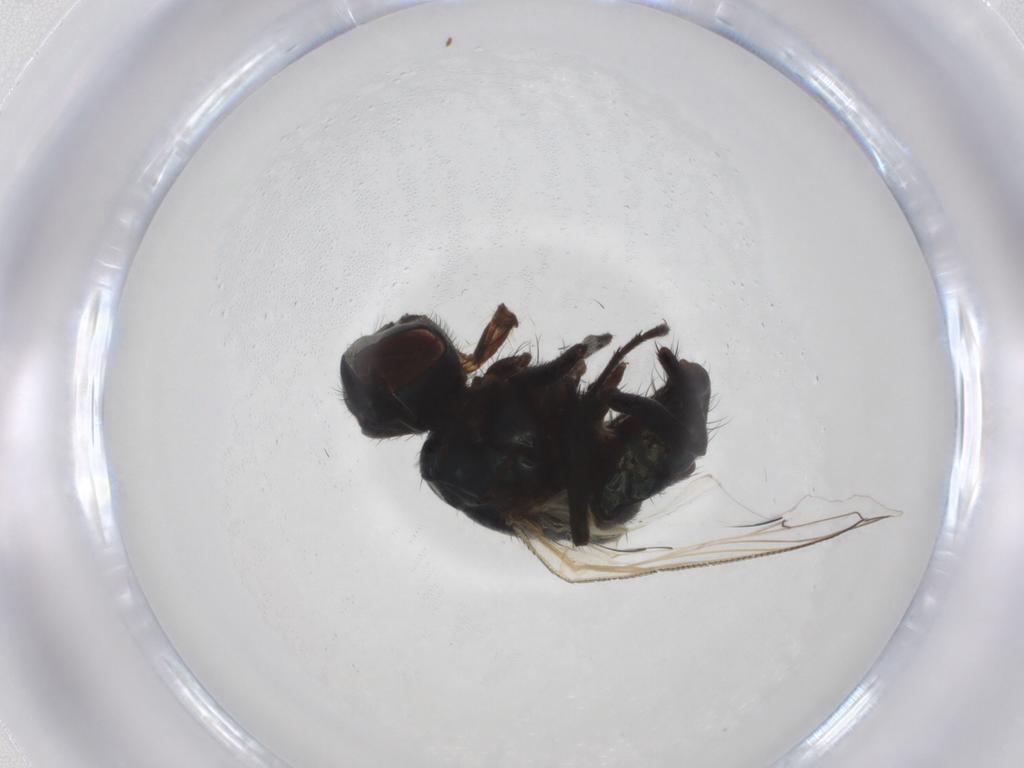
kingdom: Animalia
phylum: Arthropoda
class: Insecta
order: Diptera
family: Muscidae
